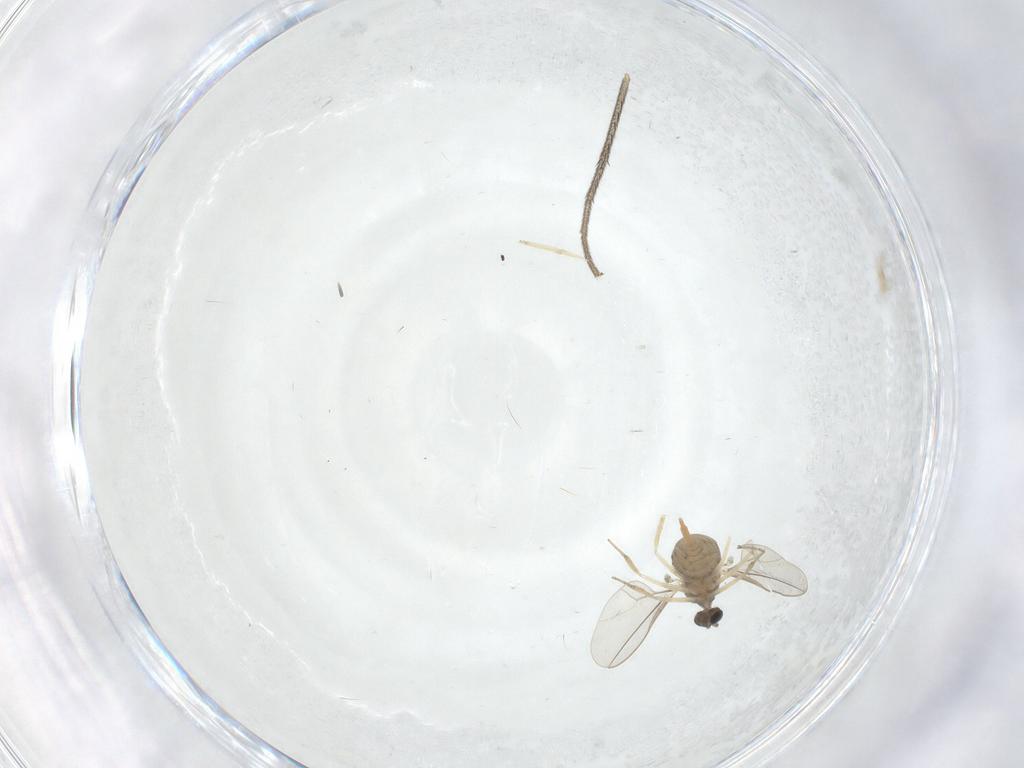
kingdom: Animalia
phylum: Arthropoda
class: Insecta
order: Diptera
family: Cecidomyiidae
